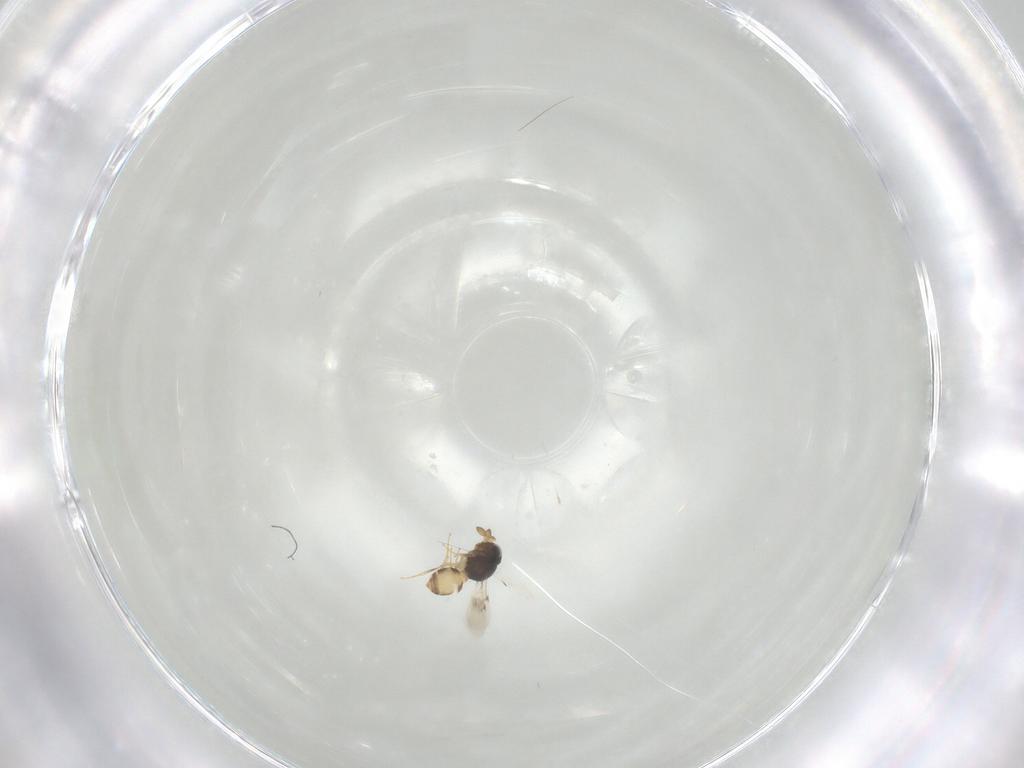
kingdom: Animalia
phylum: Arthropoda
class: Insecta
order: Hymenoptera
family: Scelionidae
